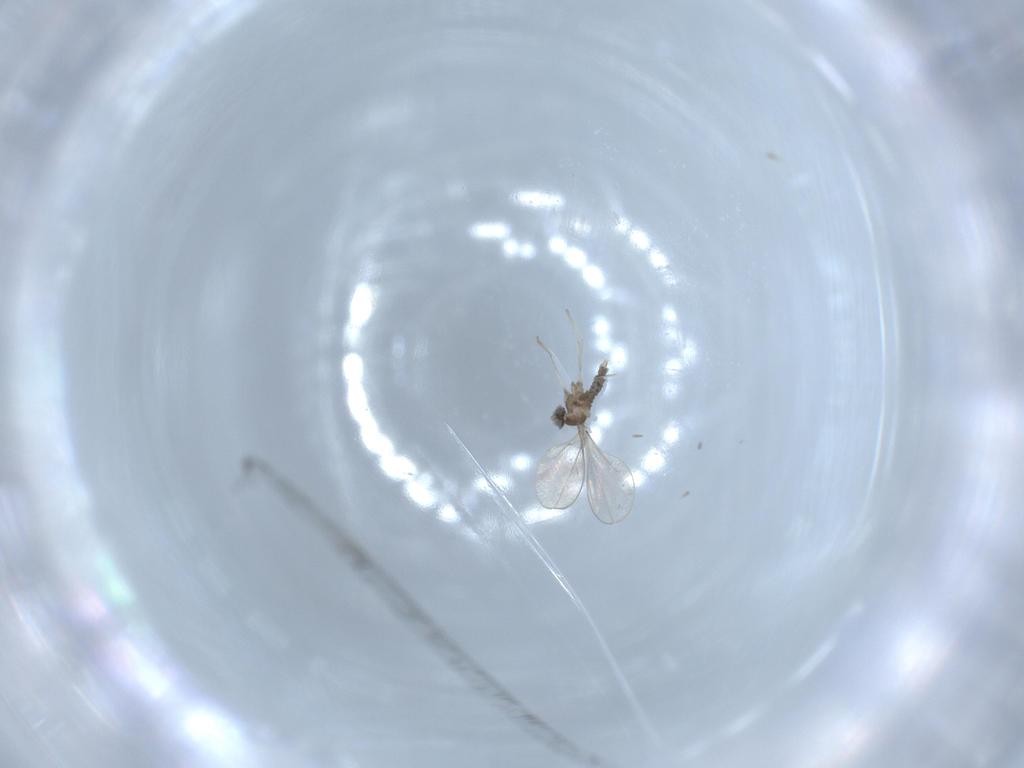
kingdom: Animalia
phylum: Arthropoda
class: Insecta
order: Diptera
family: Cecidomyiidae
